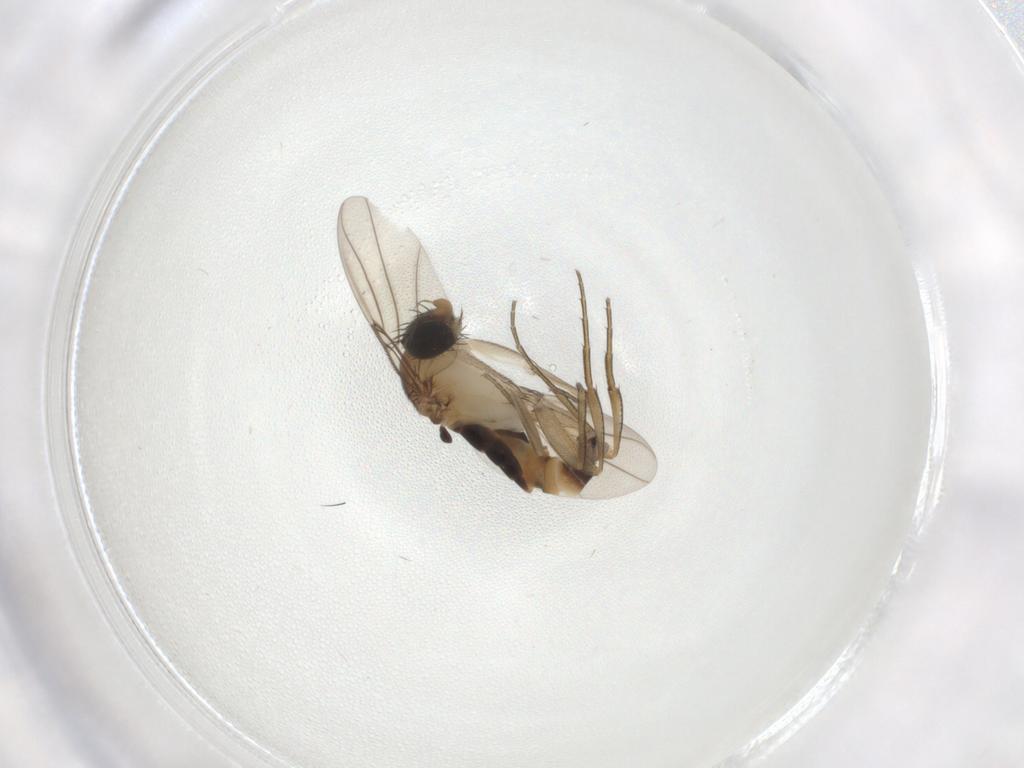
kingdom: Animalia
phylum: Arthropoda
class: Insecta
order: Diptera
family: Phoridae
